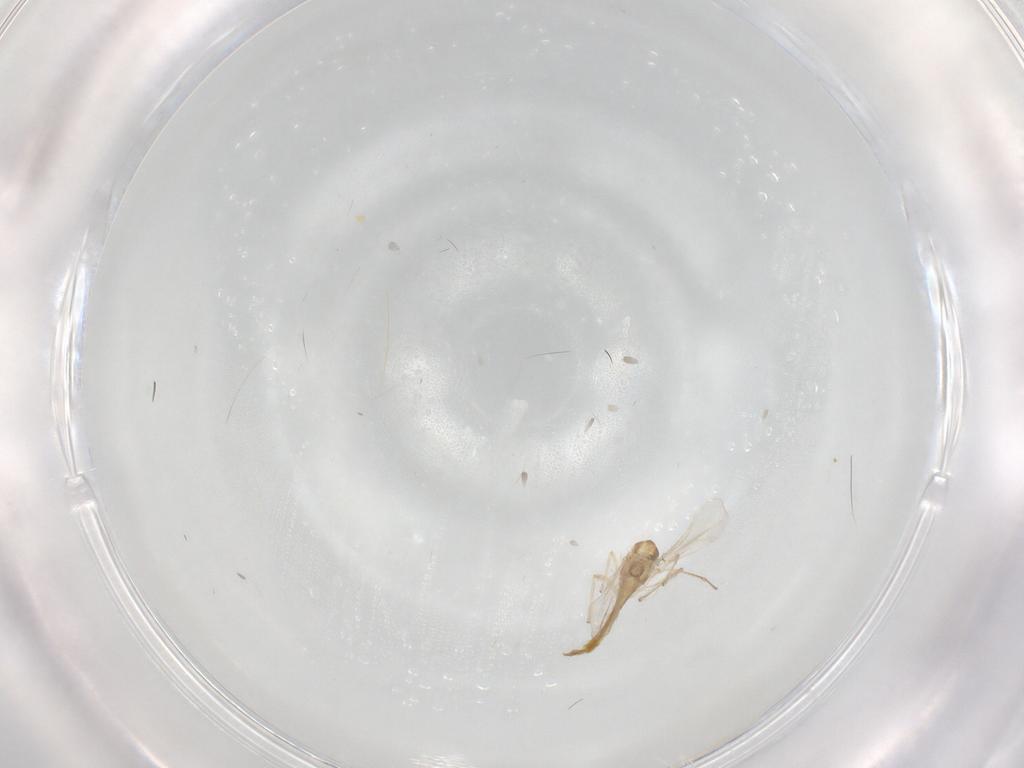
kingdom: Animalia
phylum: Arthropoda
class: Insecta
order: Diptera
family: Chironomidae
